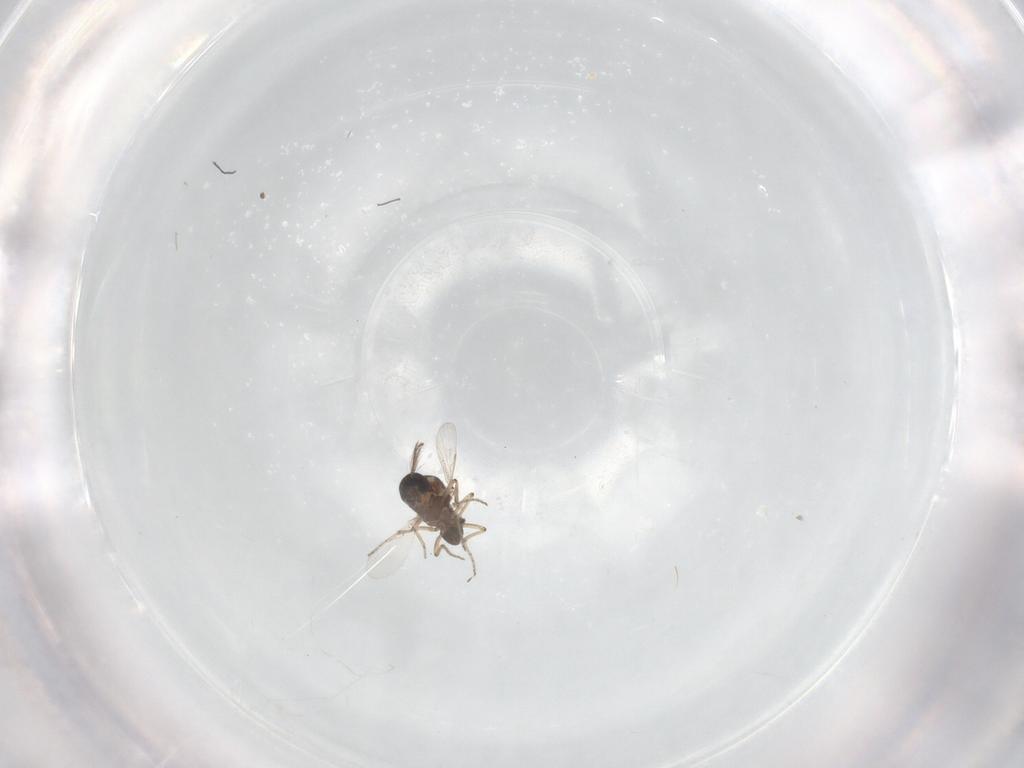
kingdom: Animalia
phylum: Arthropoda
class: Insecta
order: Diptera
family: Ceratopogonidae
